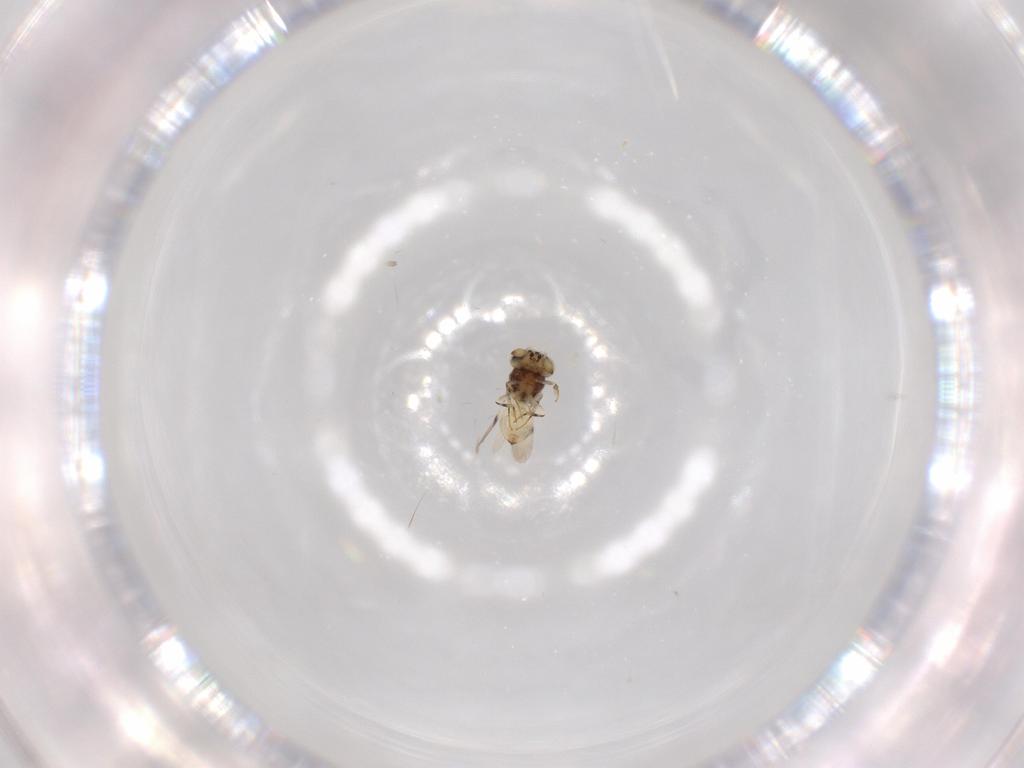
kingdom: Animalia
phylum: Arthropoda
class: Insecta
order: Hymenoptera
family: Scelionidae
